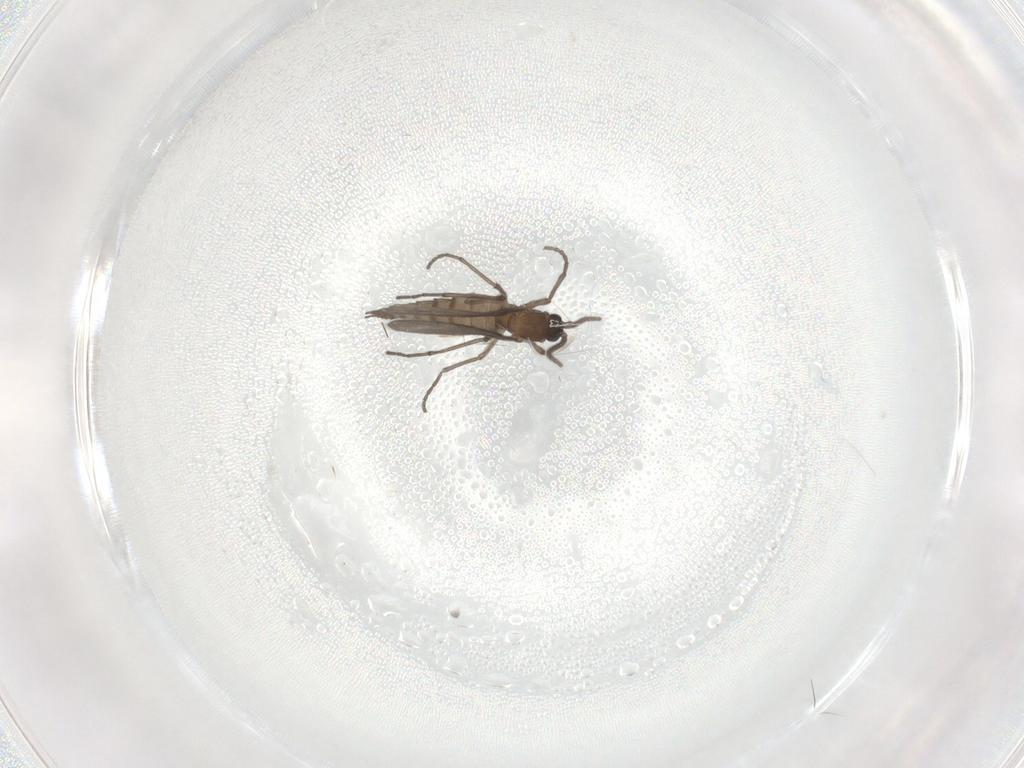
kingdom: Animalia
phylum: Arthropoda
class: Insecta
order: Diptera
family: Sciaridae
